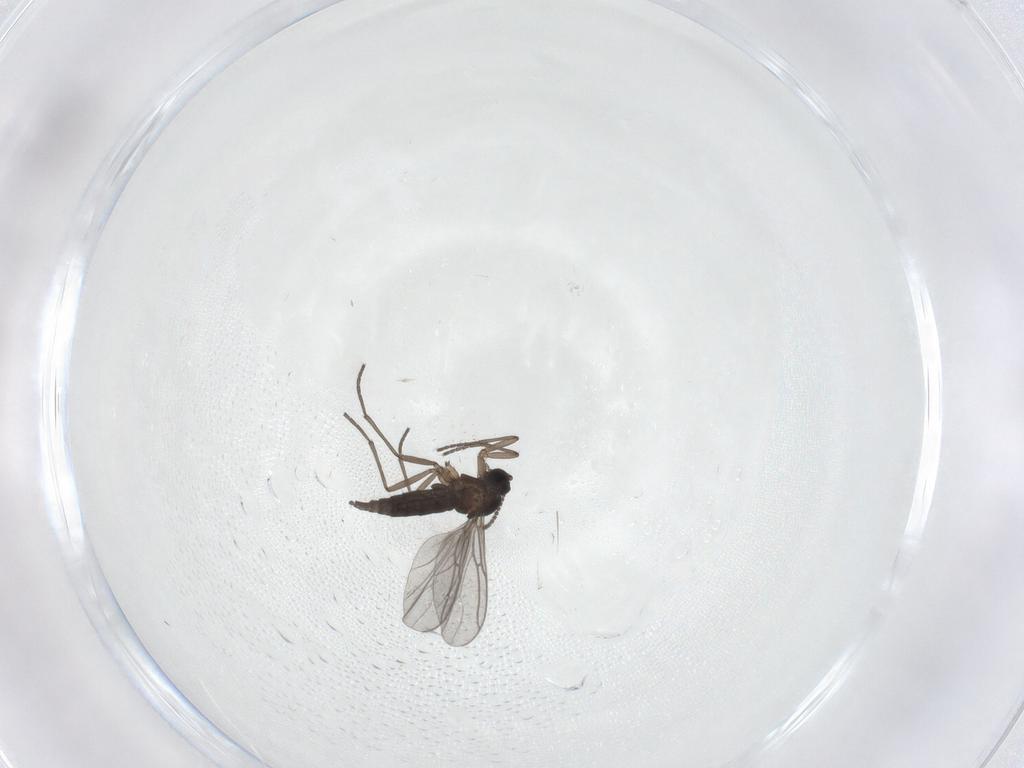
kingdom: Animalia
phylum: Arthropoda
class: Insecta
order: Diptera
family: Sciaridae
